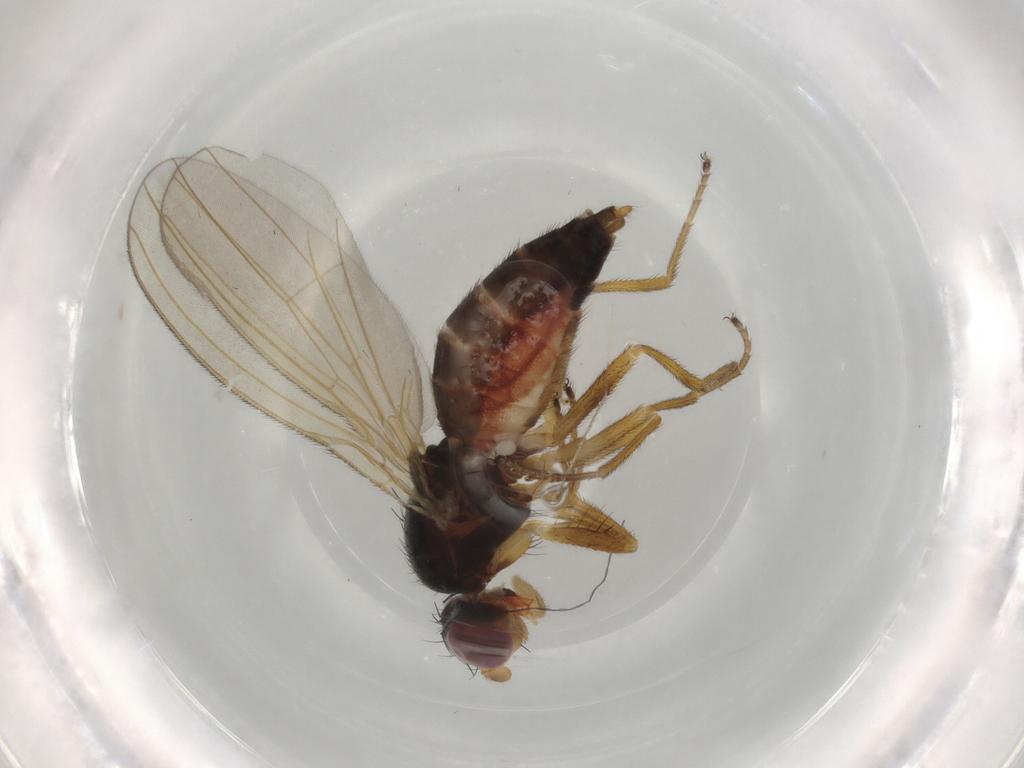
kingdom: Animalia
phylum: Arthropoda
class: Insecta
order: Diptera
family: Anthomyzidae
